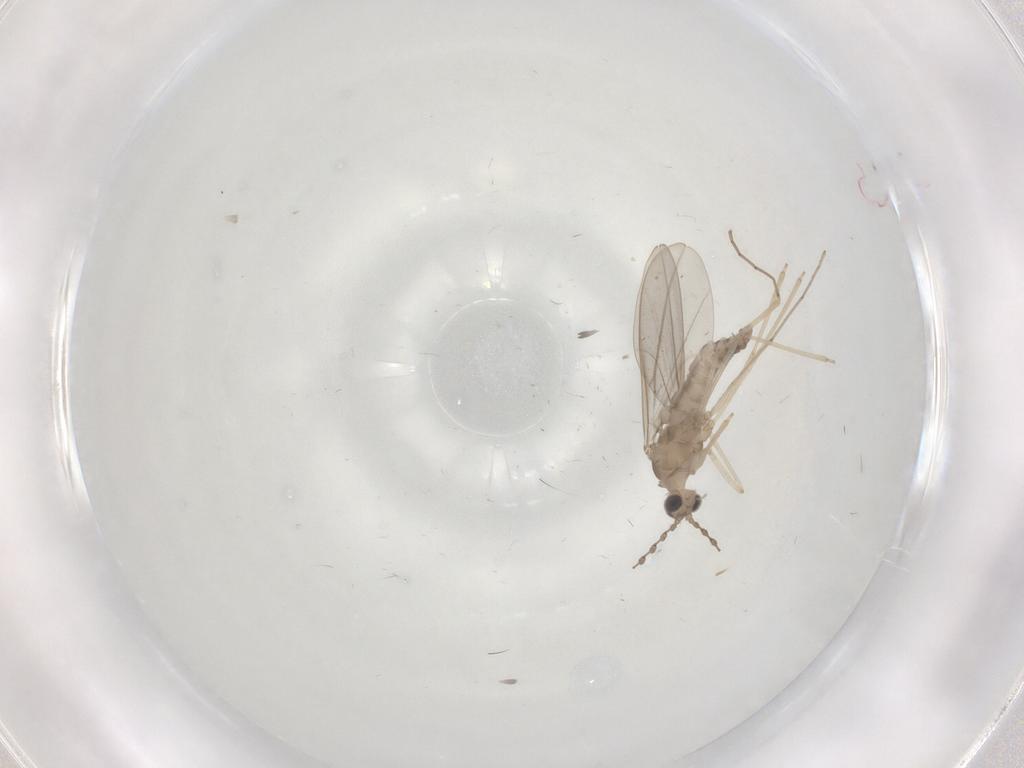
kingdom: Animalia
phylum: Arthropoda
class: Insecta
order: Diptera
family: Cecidomyiidae
